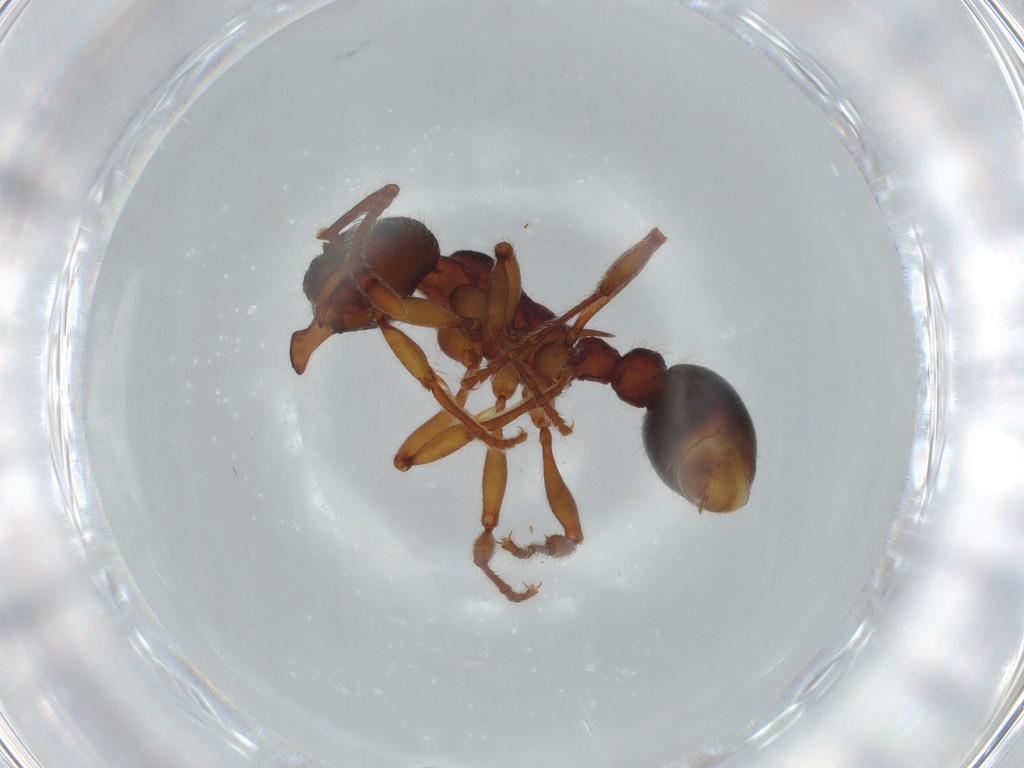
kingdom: Animalia
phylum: Arthropoda
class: Insecta
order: Hymenoptera
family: Formicidae
